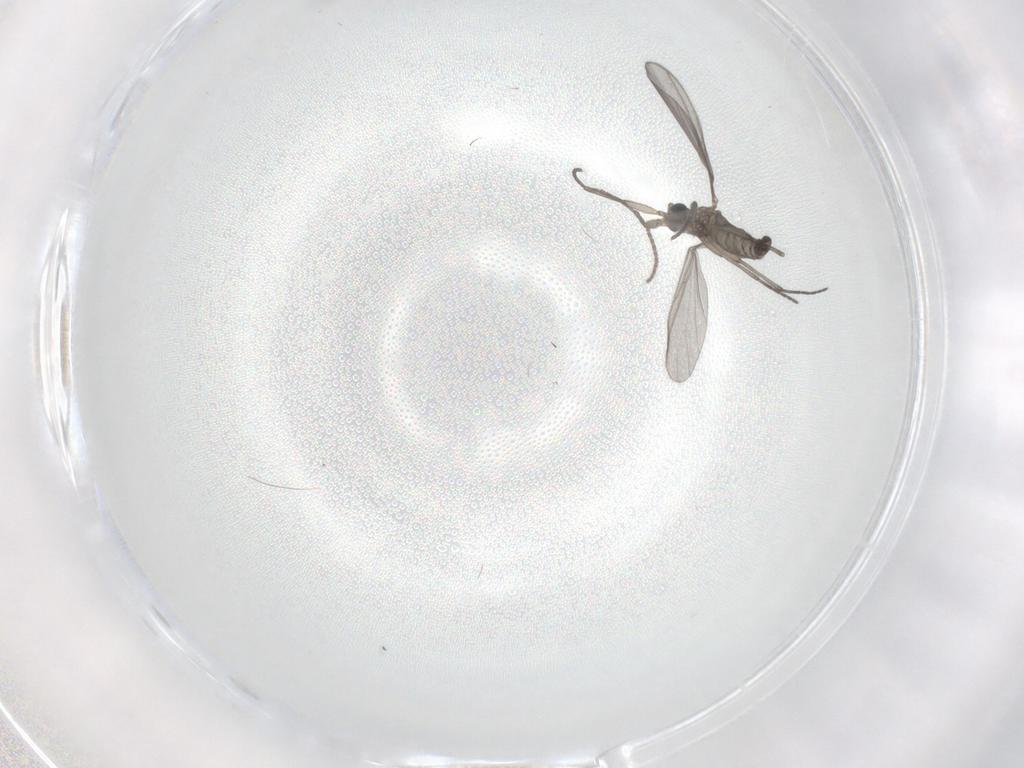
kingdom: Animalia
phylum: Arthropoda
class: Insecta
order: Diptera
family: Sciaridae
